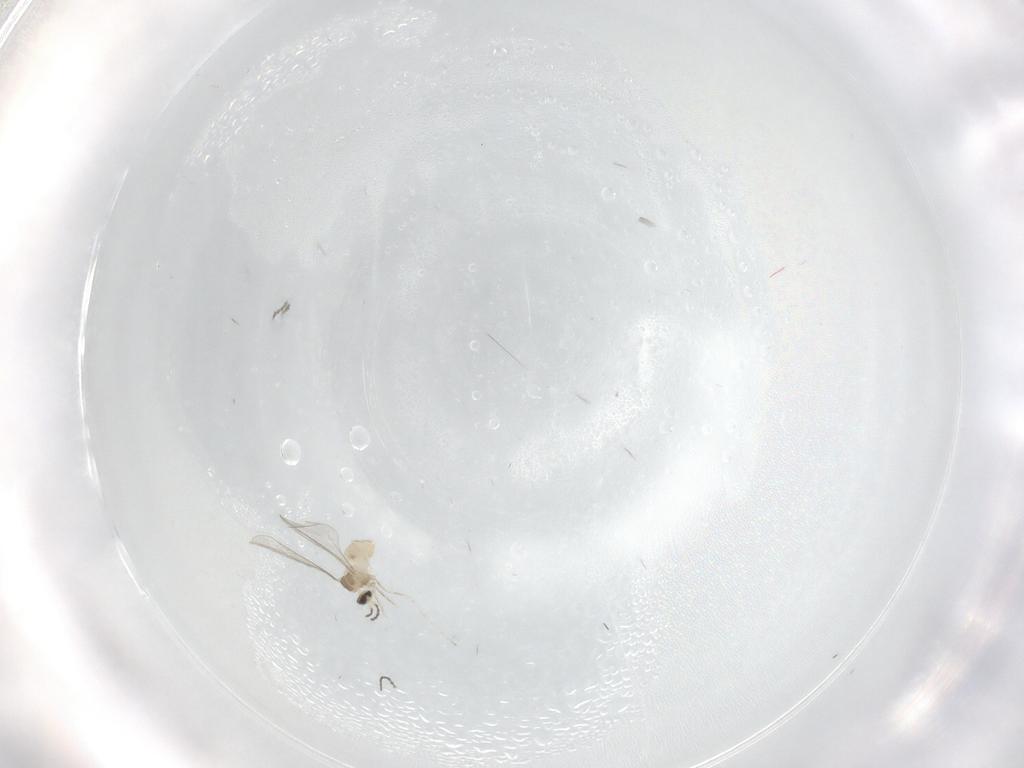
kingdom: Animalia
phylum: Arthropoda
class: Insecta
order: Diptera
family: Cecidomyiidae
